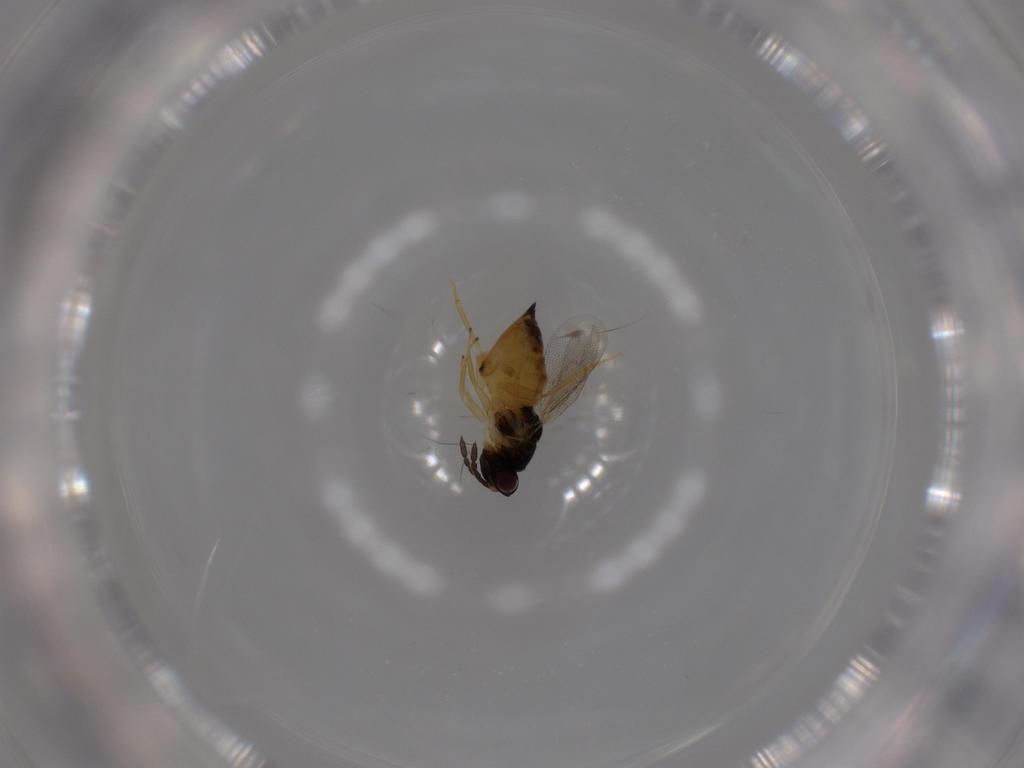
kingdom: Animalia
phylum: Arthropoda
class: Insecta
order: Hymenoptera
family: Eulophidae
